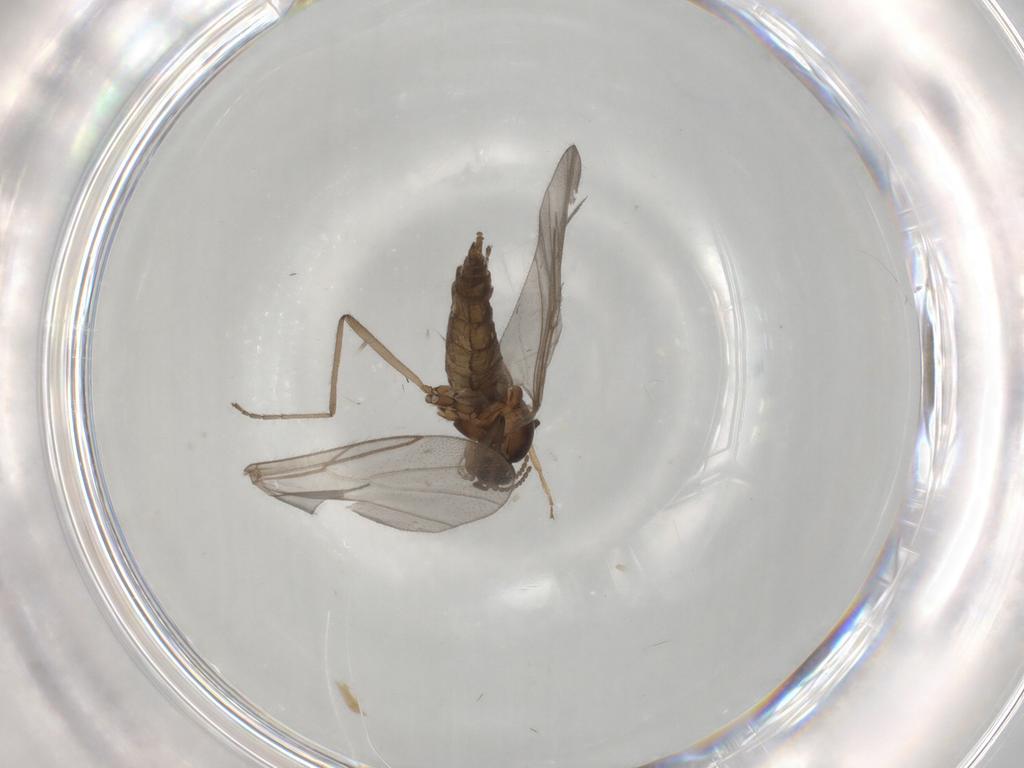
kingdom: Animalia
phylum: Arthropoda
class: Insecta
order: Diptera
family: Cecidomyiidae
